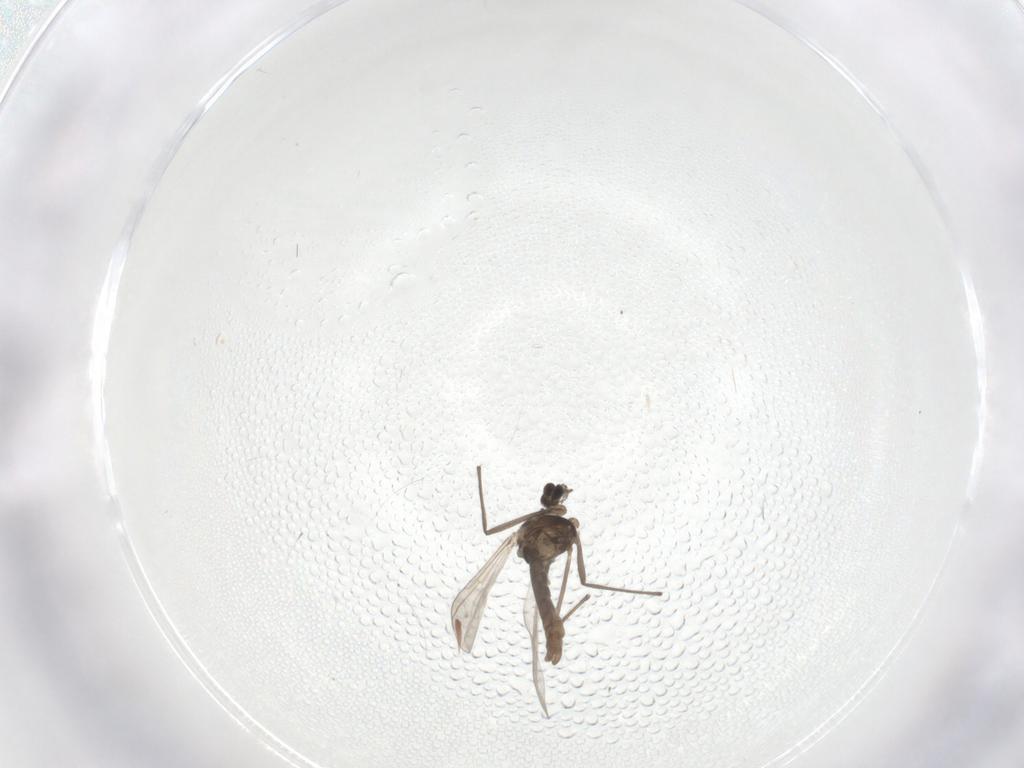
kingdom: Animalia
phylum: Arthropoda
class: Insecta
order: Diptera
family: Chironomidae
